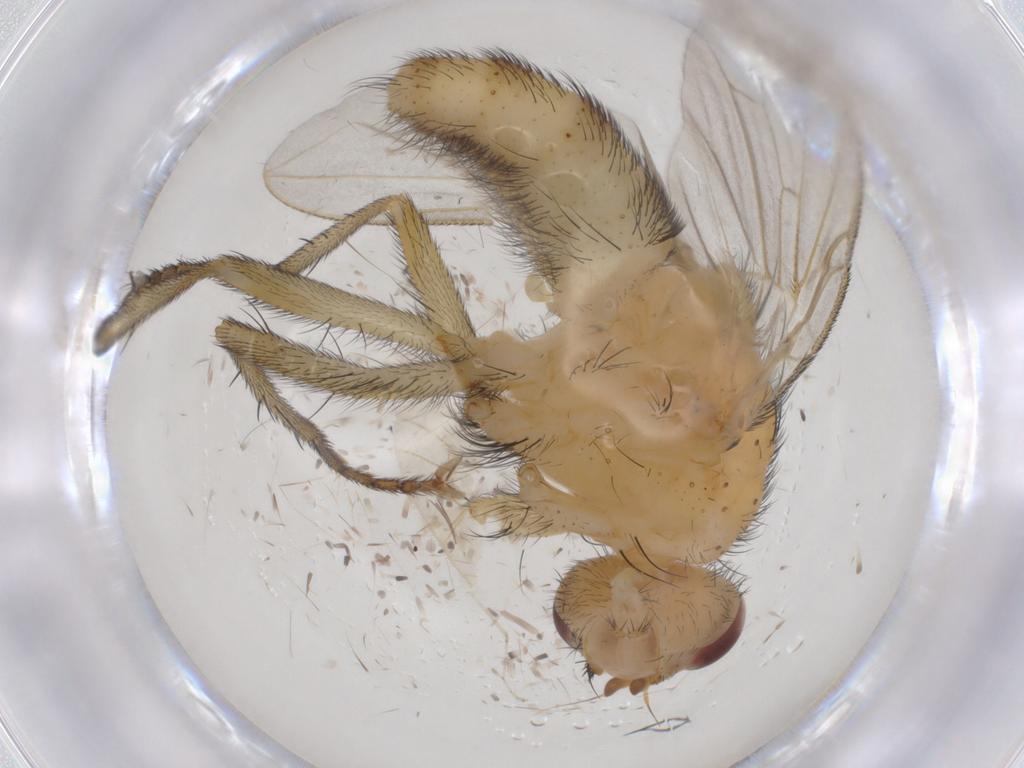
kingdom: Animalia
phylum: Arthropoda
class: Insecta
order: Diptera
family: Tachinidae
